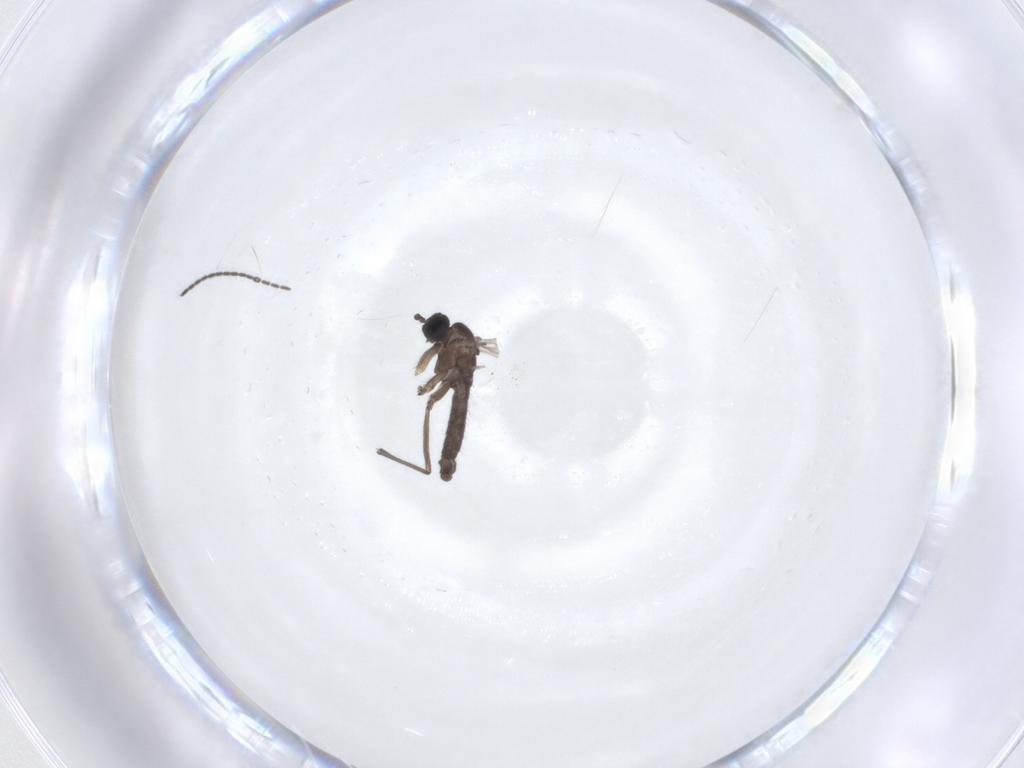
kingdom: Animalia
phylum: Arthropoda
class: Insecta
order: Diptera
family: Sciaridae
